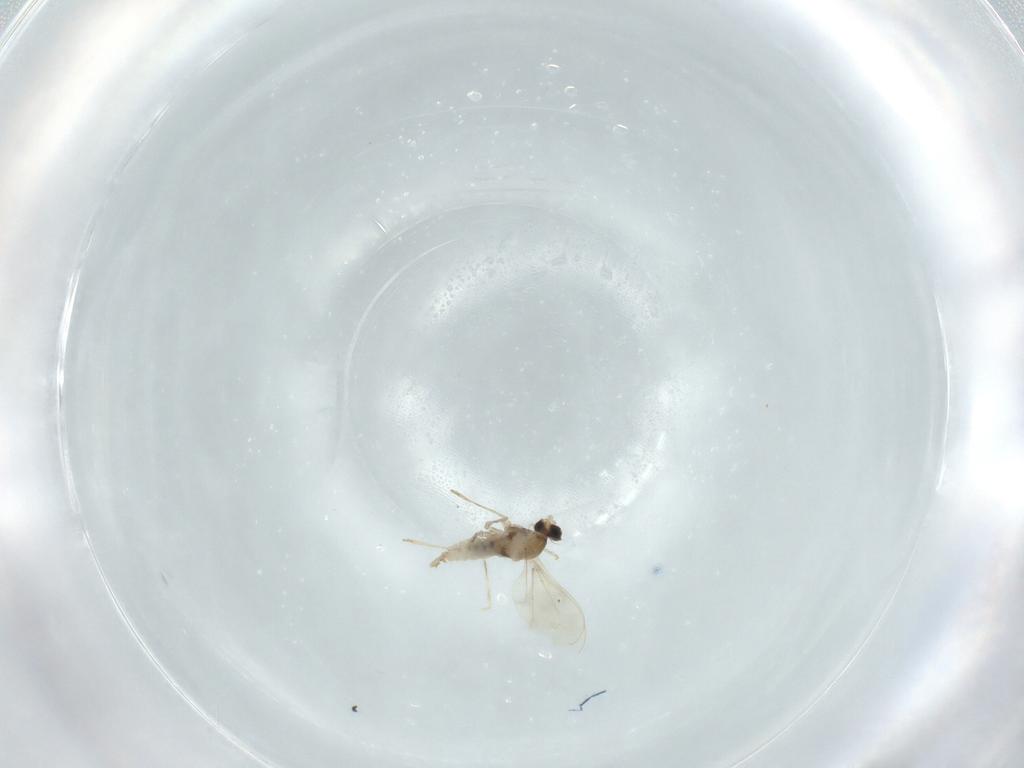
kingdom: Animalia
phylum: Arthropoda
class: Insecta
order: Diptera
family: Cecidomyiidae
